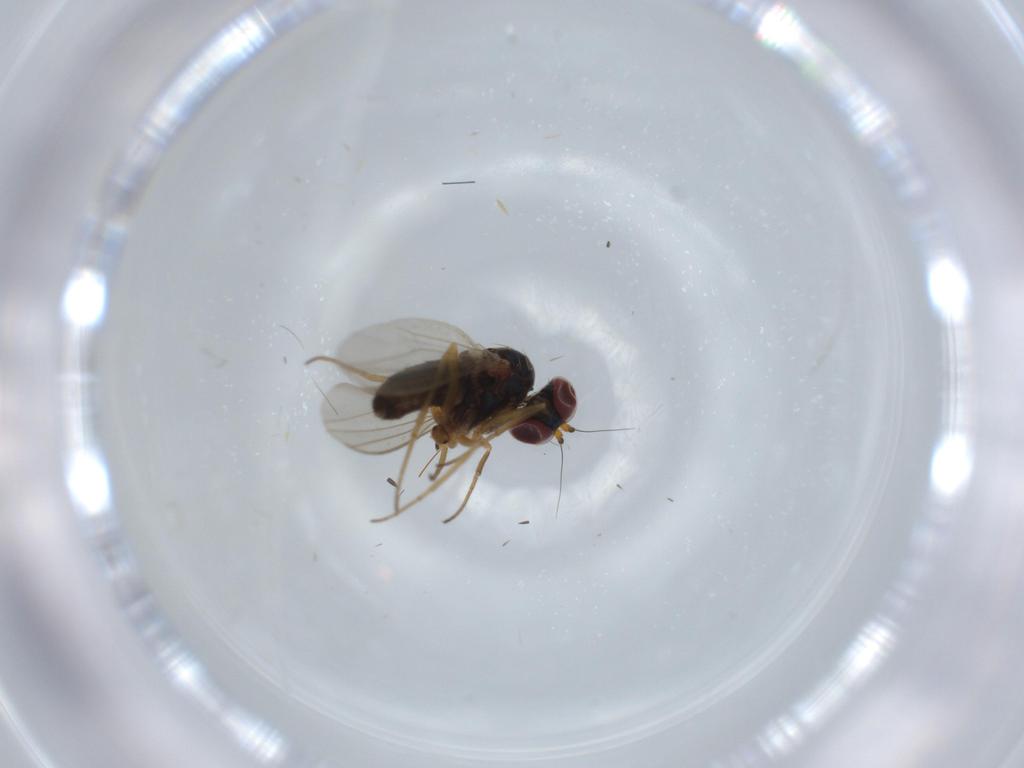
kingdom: Animalia
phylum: Arthropoda
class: Insecta
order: Diptera
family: Dolichopodidae
